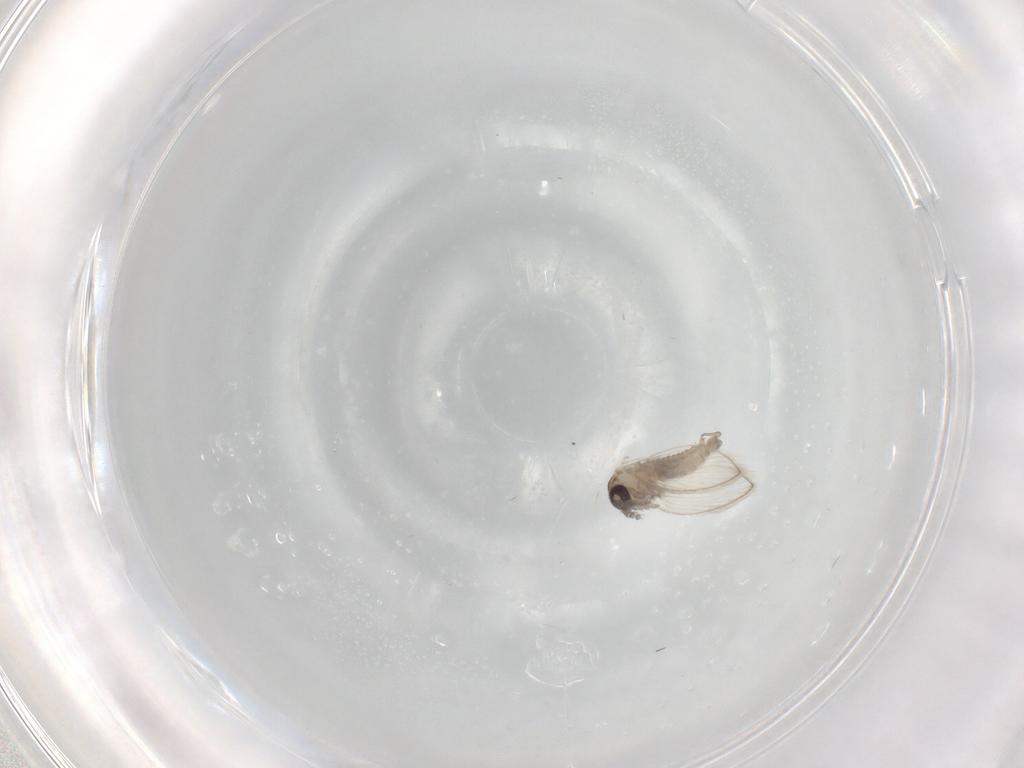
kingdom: Animalia
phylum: Arthropoda
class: Insecta
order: Diptera
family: Psychodidae
